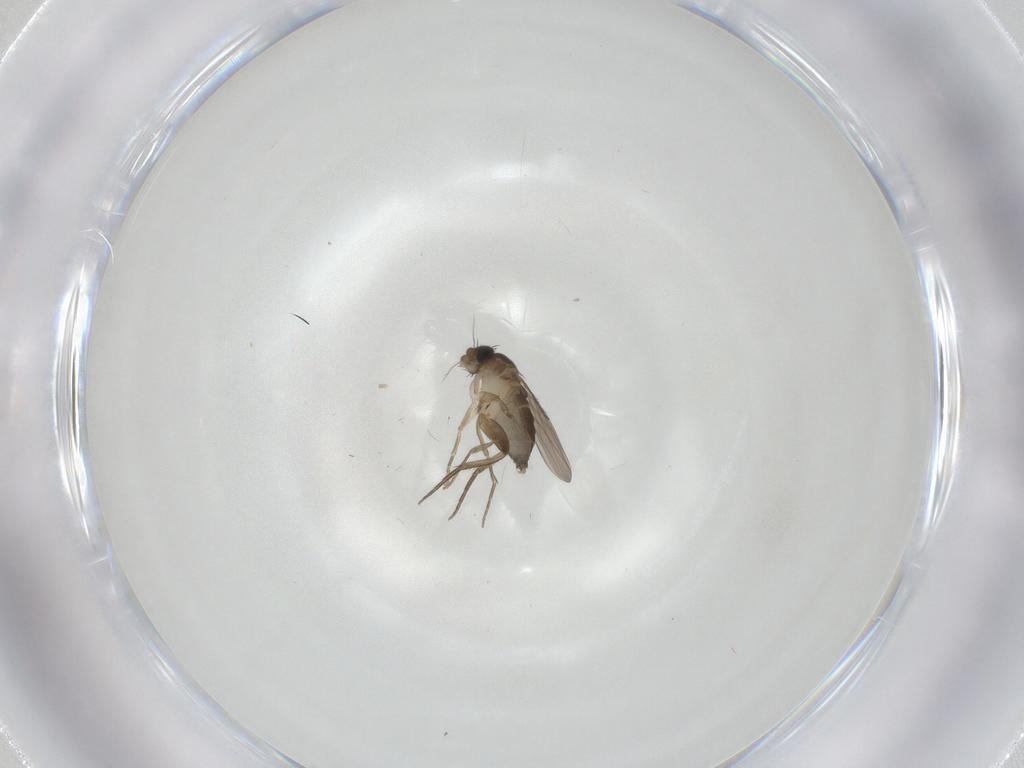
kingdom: Animalia
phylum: Arthropoda
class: Insecta
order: Diptera
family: Phoridae
